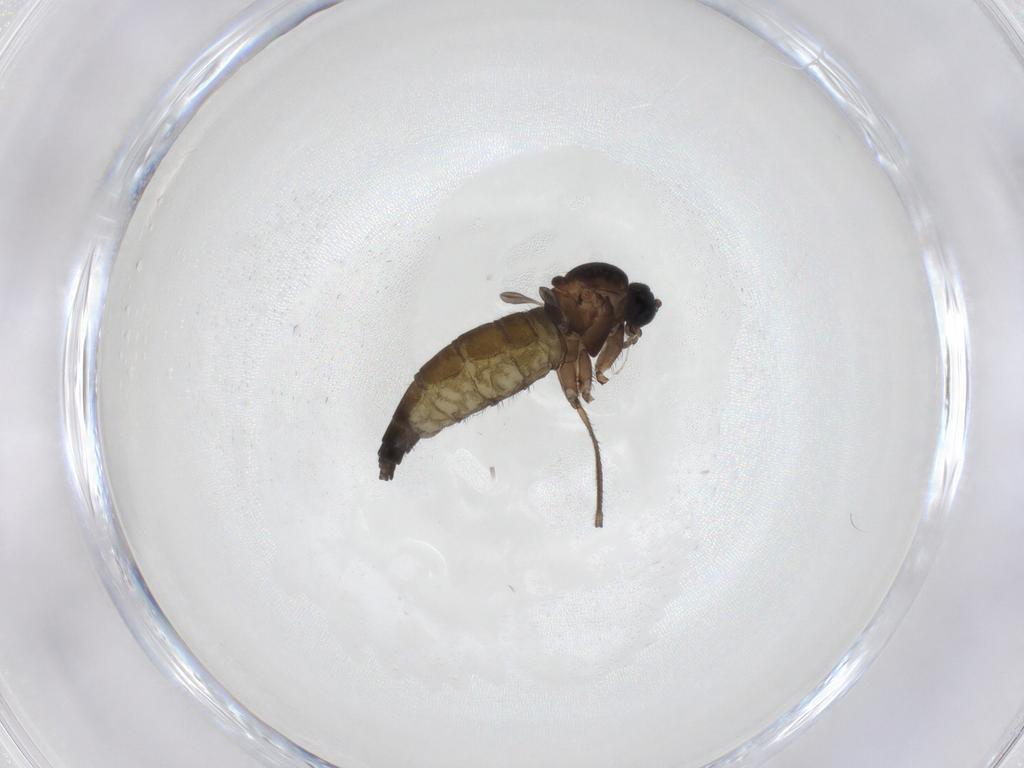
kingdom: Animalia
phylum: Arthropoda
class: Insecta
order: Diptera
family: Sciaridae
